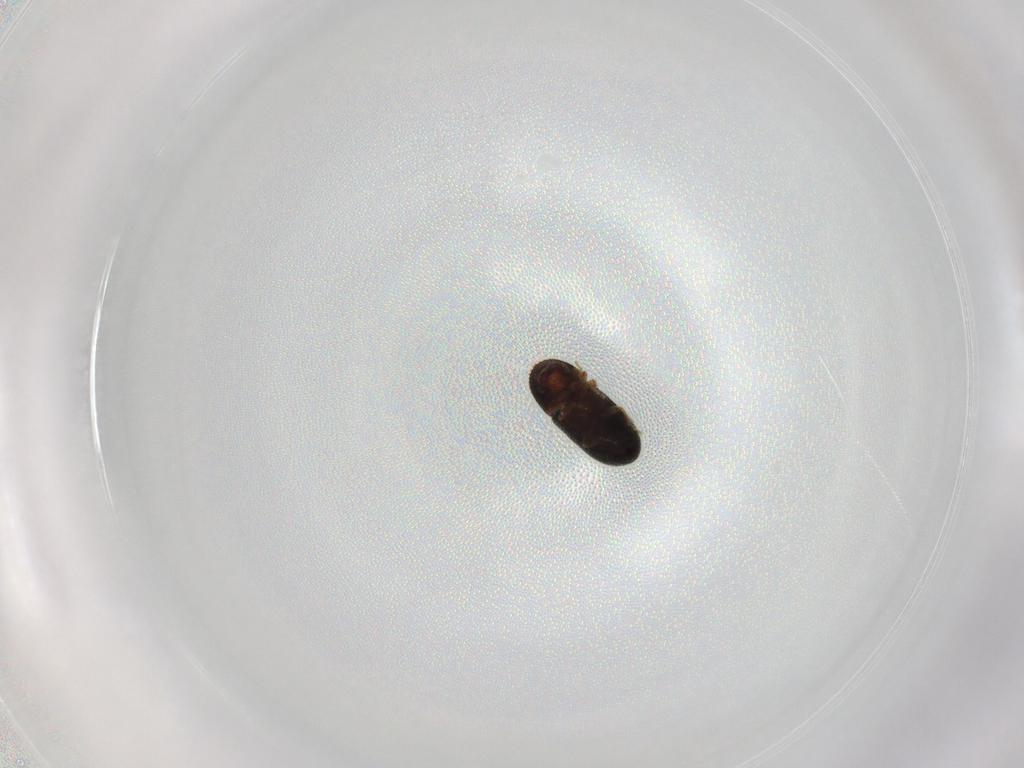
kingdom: Animalia
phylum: Arthropoda
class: Insecta
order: Coleoptera
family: Curculionidae
